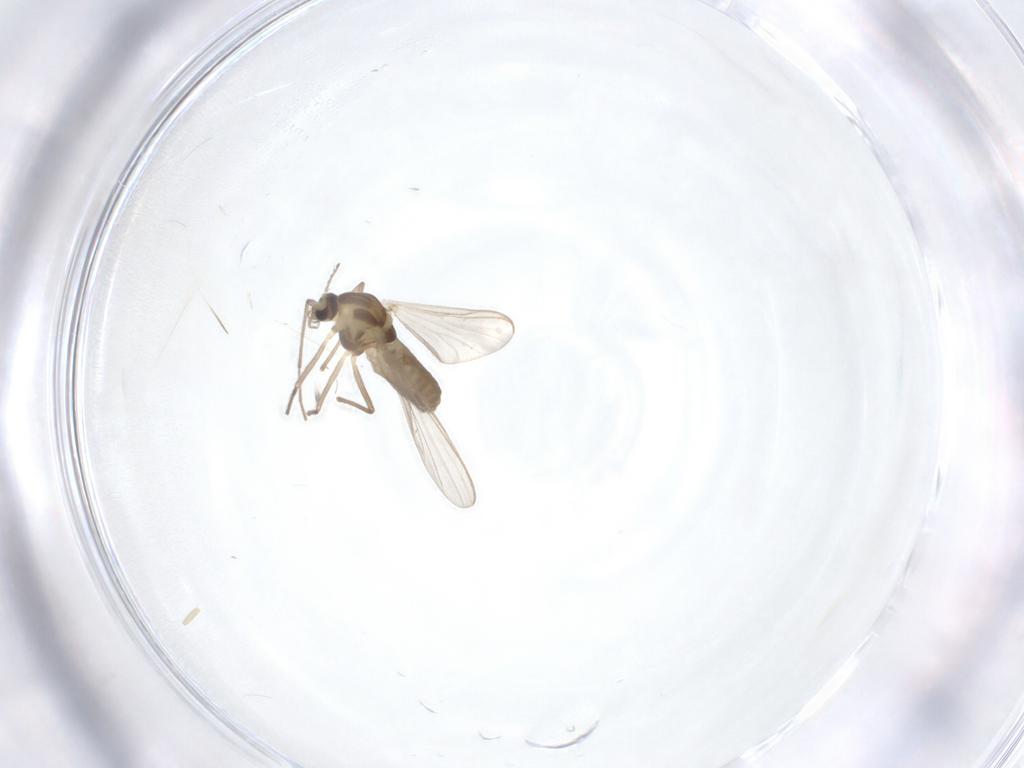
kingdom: Animalia
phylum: Arthropoda
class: Insecta
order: Diptera
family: Chironomidae
